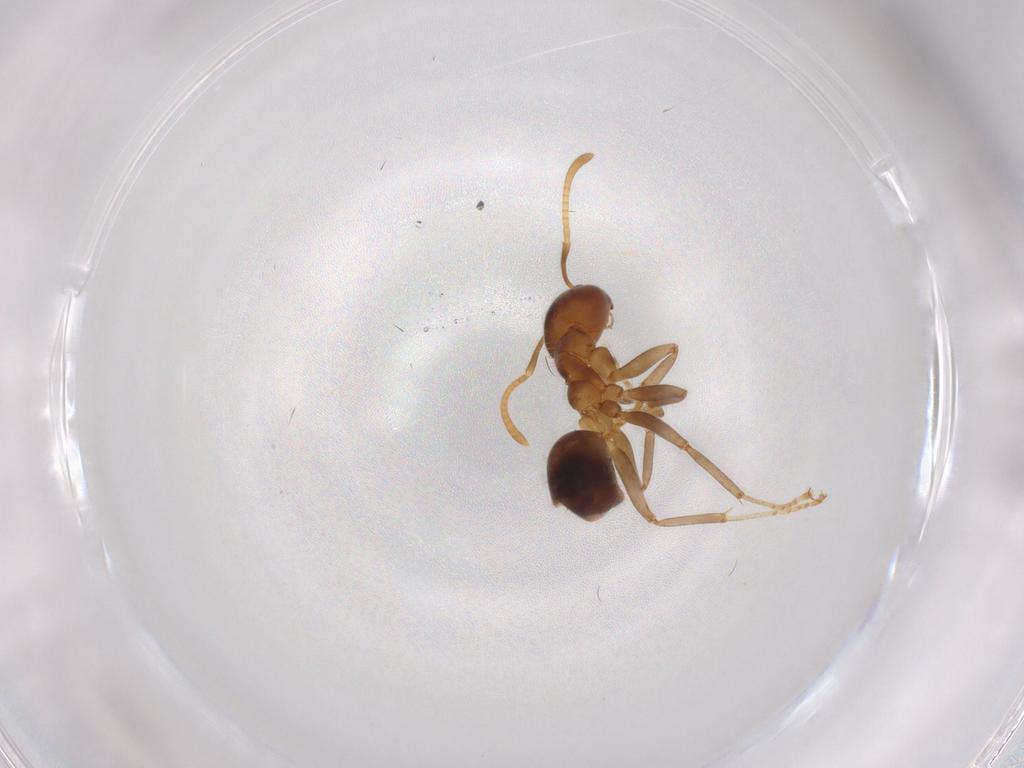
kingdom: Animalia
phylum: Arthropoda
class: Insecta
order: Hymenoptera
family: Formicidae
